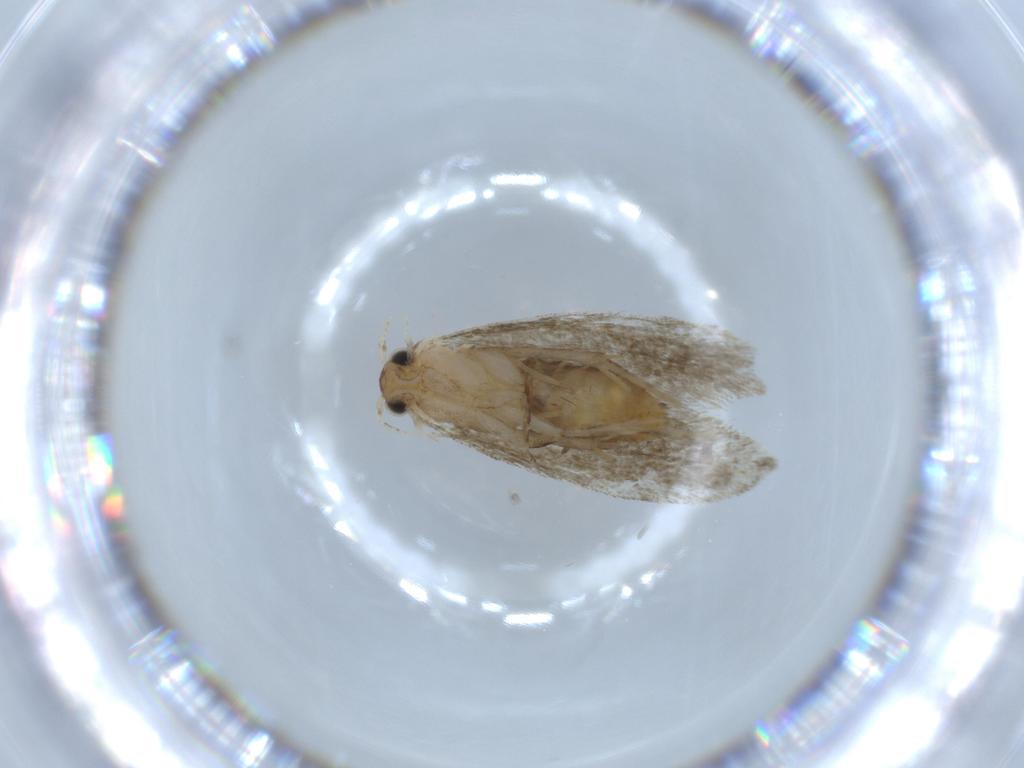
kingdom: Animalia
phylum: Arthropoda
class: Insecta
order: Lepidoptera
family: Tineidae
